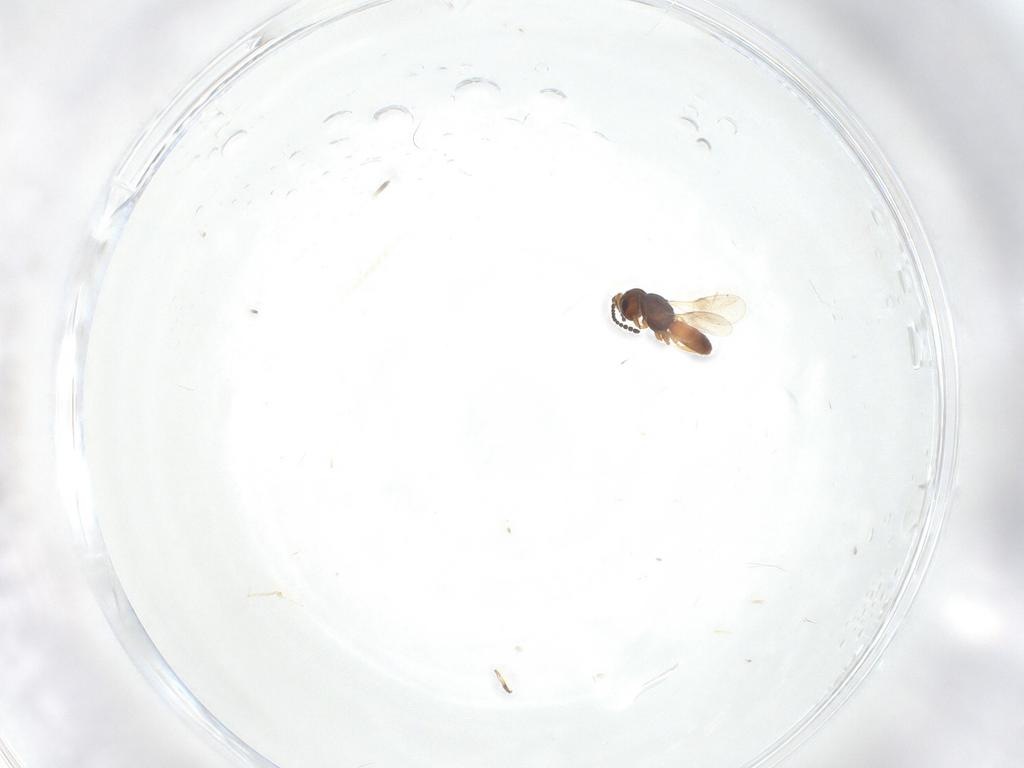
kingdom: Animalia
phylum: Arthropoda
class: Insecta
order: Hymenoptera
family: Scelionidae
